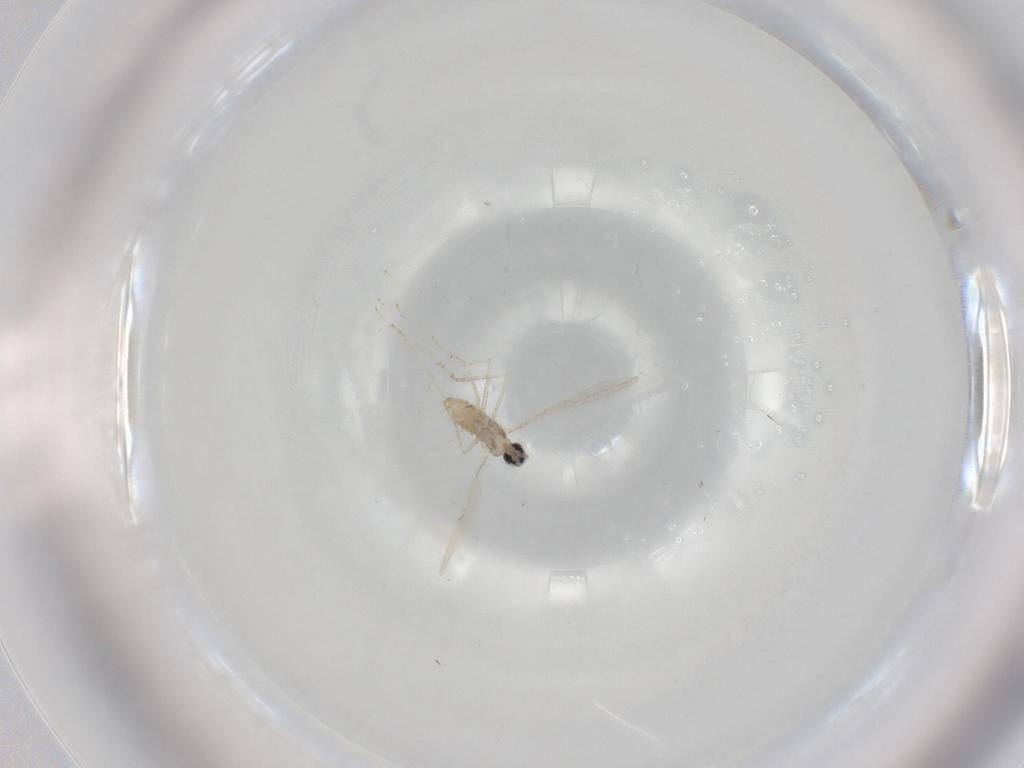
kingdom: Animalia
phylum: Arthropoda
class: Insecta
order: Diptera
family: Cecidomyiidae
